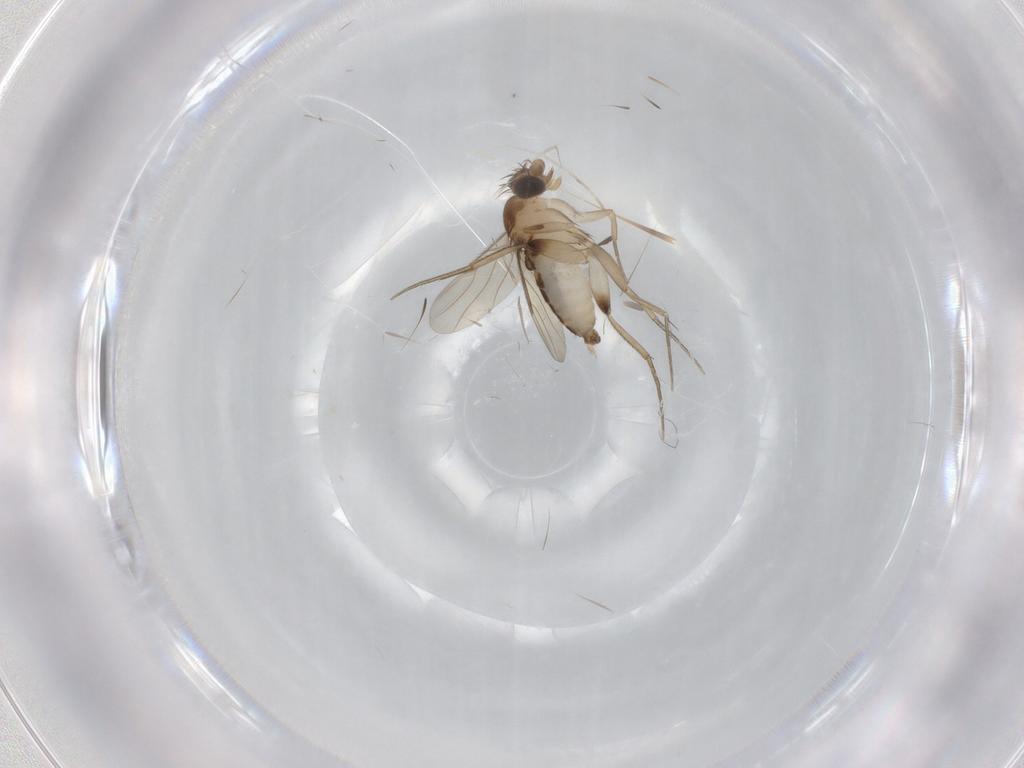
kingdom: Animalia
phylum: Arthropoda
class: Insecta
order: Diptera
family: Phoridae
